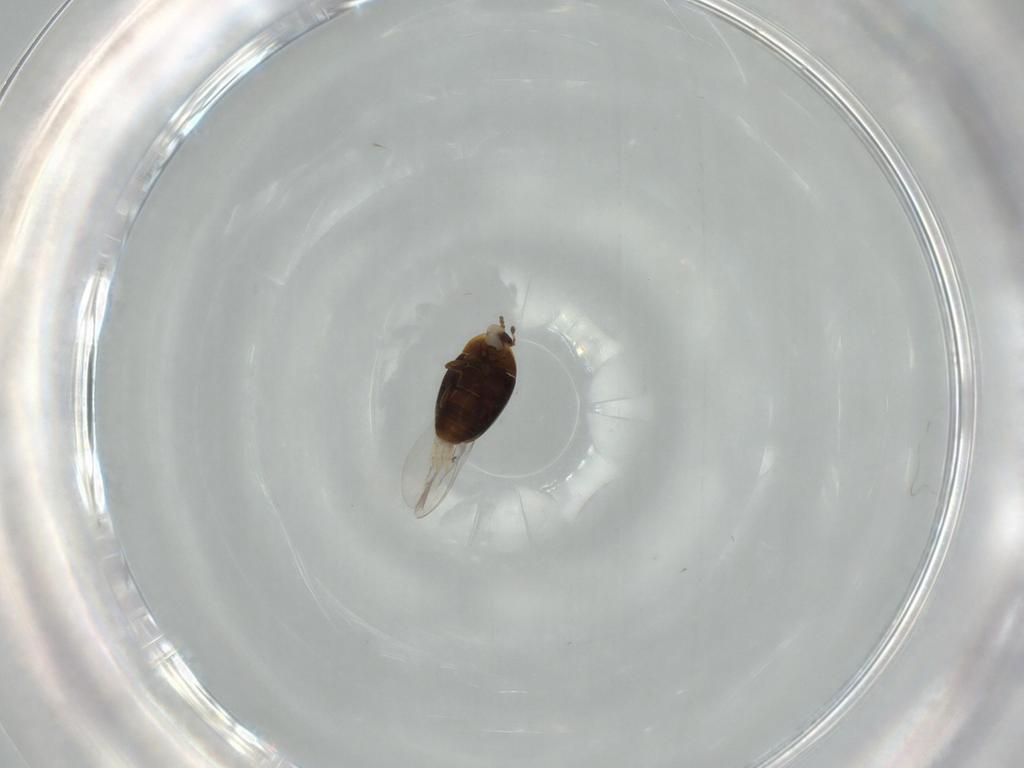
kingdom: Animalia
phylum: Arthropoda
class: Insecta
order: Coleoptera
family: Corylophidae
